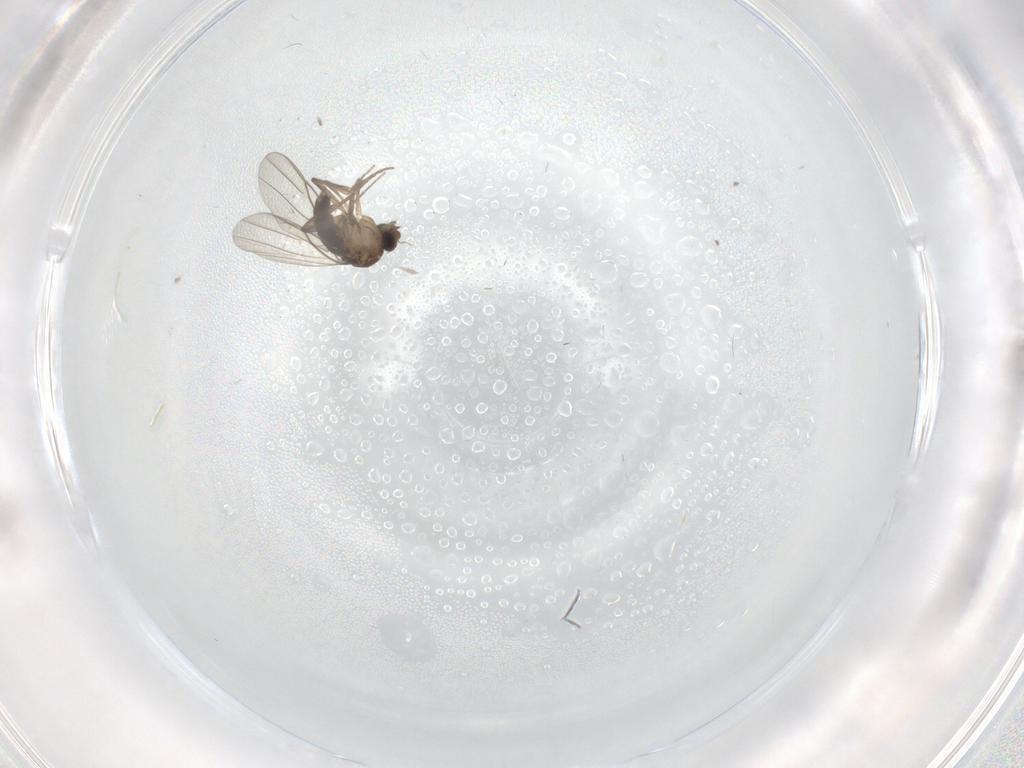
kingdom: Animalia
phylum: Arthropoda
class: Insecta
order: Diptera
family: Cecidomyiidae
